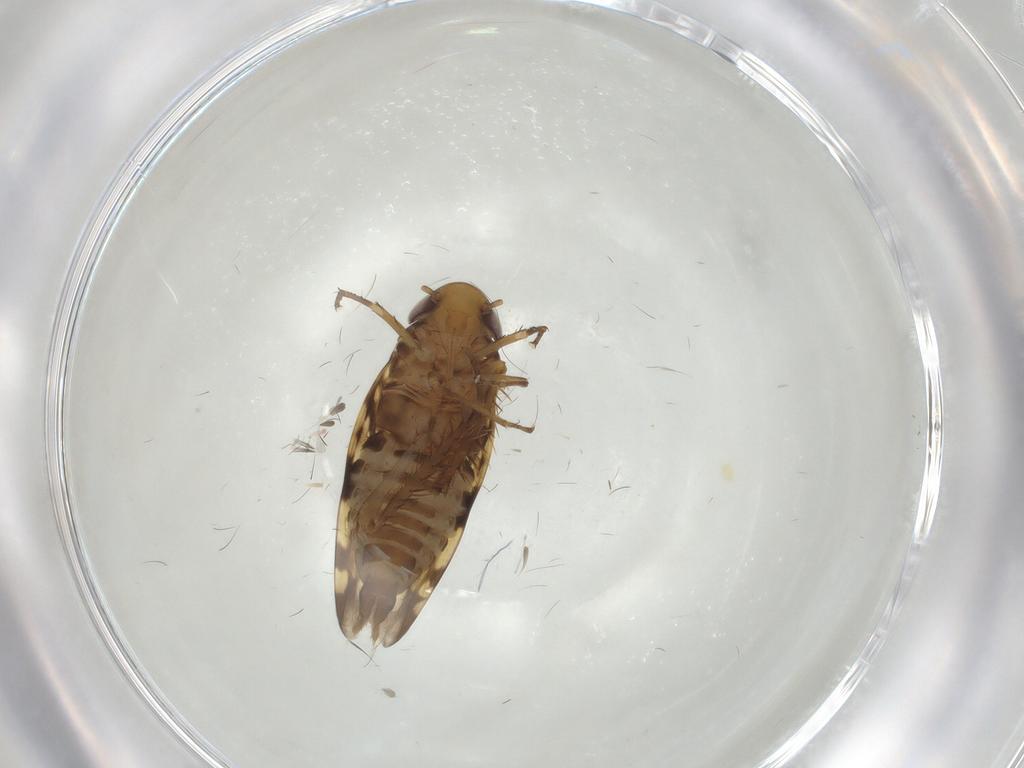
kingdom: Animalia
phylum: Arthropoda
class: Insecta
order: Hemiptera
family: Cicadellidae
